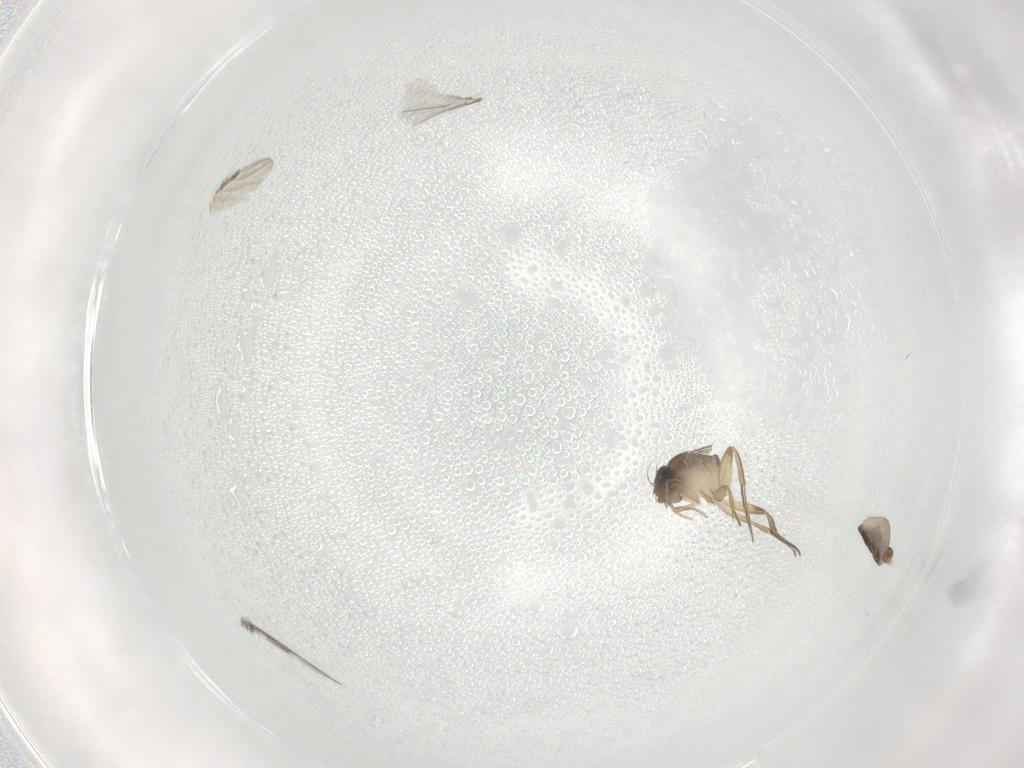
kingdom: Animalia
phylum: Arthropoda
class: Insecta
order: Diptera
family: Phoridae
